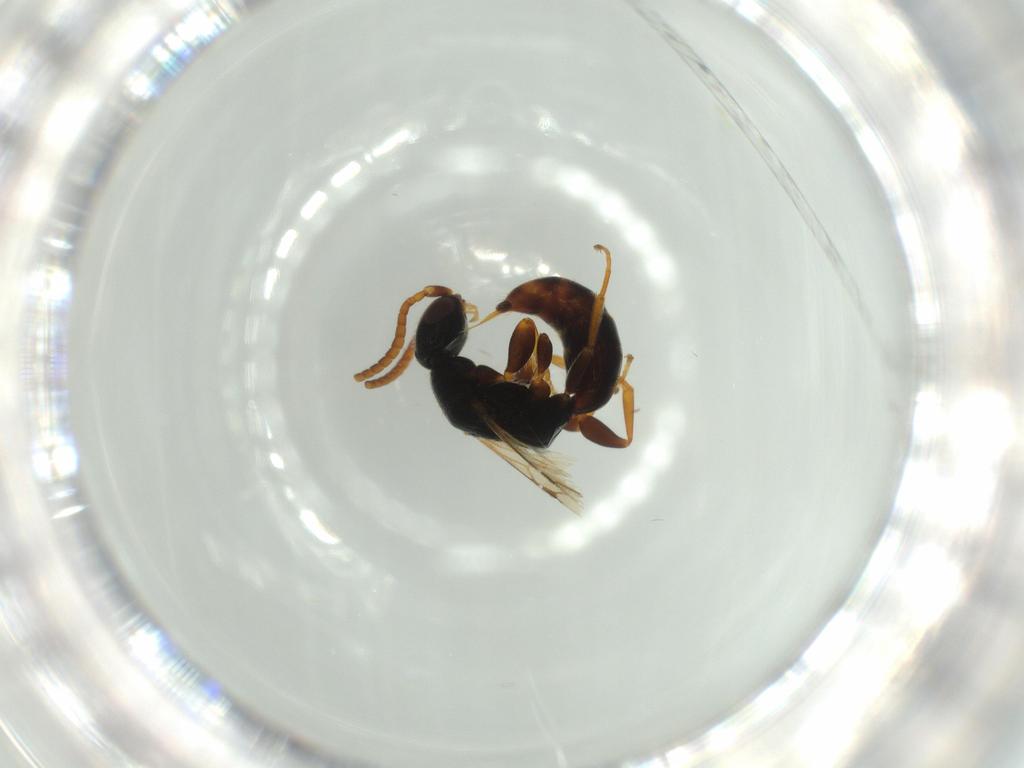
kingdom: Animalia
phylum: Arthropoda
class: Insecta
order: Hymenoptera
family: Bethylidae
